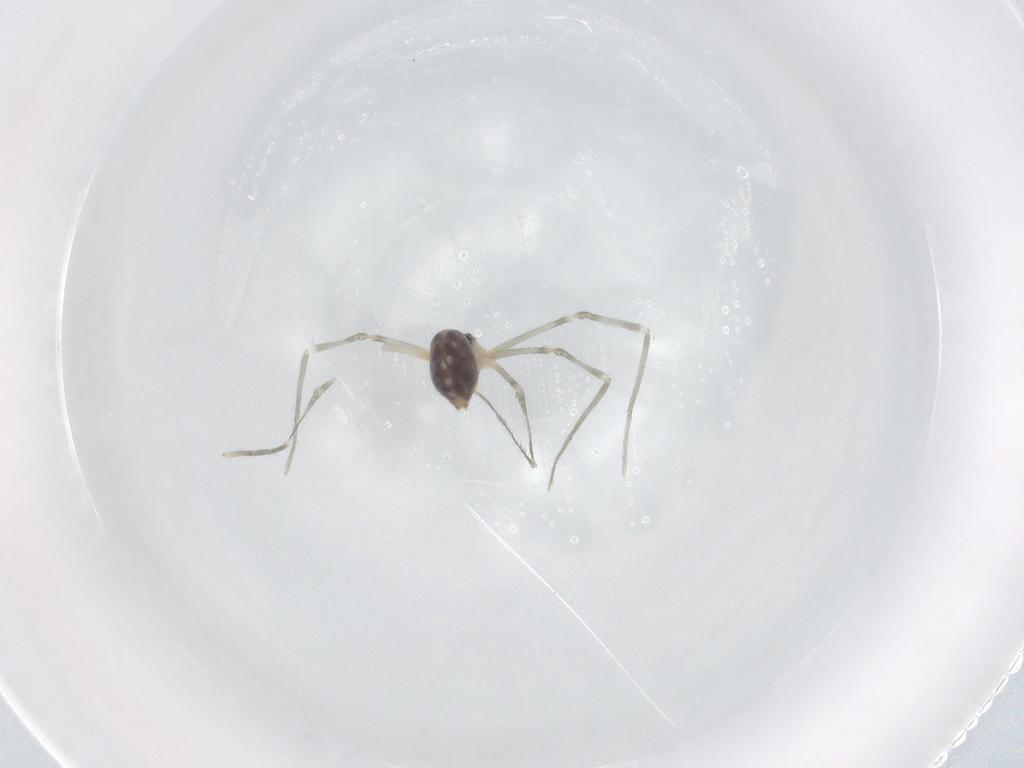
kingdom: Animalia
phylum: Arthropoda
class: Arachnida
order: Araneae
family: Pholcidae
